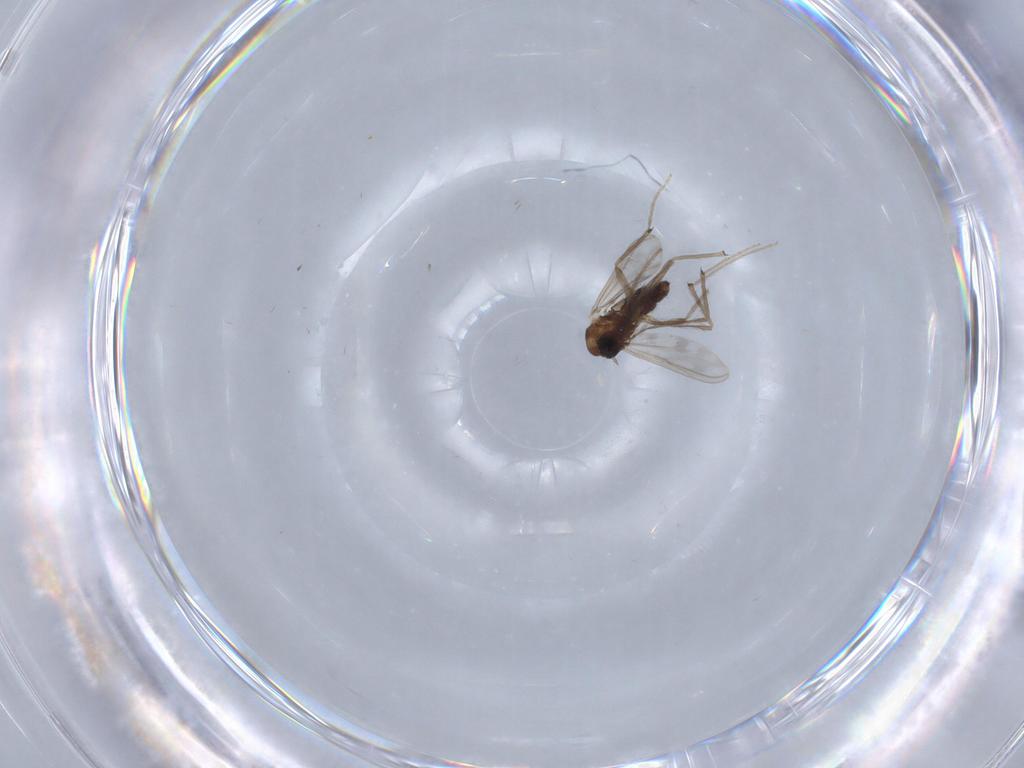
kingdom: Animalia
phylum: Arthropoda
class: Insecta
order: Diptera
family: Chironomidae
